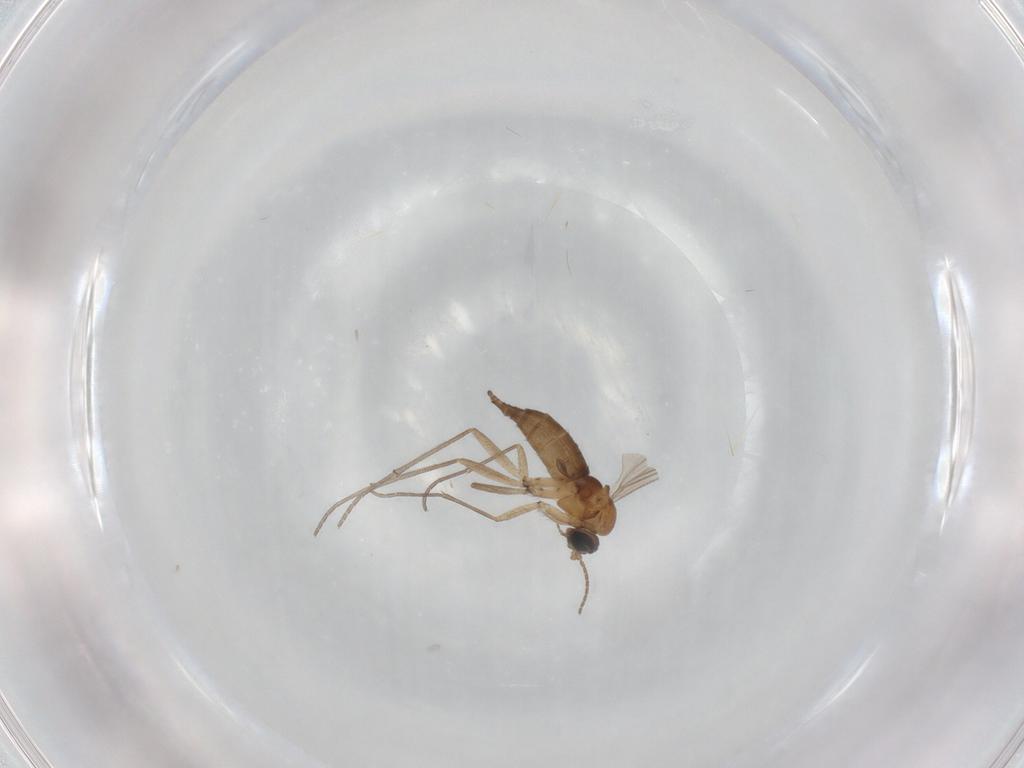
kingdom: Animalia
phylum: Arthropoda
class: Insecta
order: Diptera
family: Sciaridae
